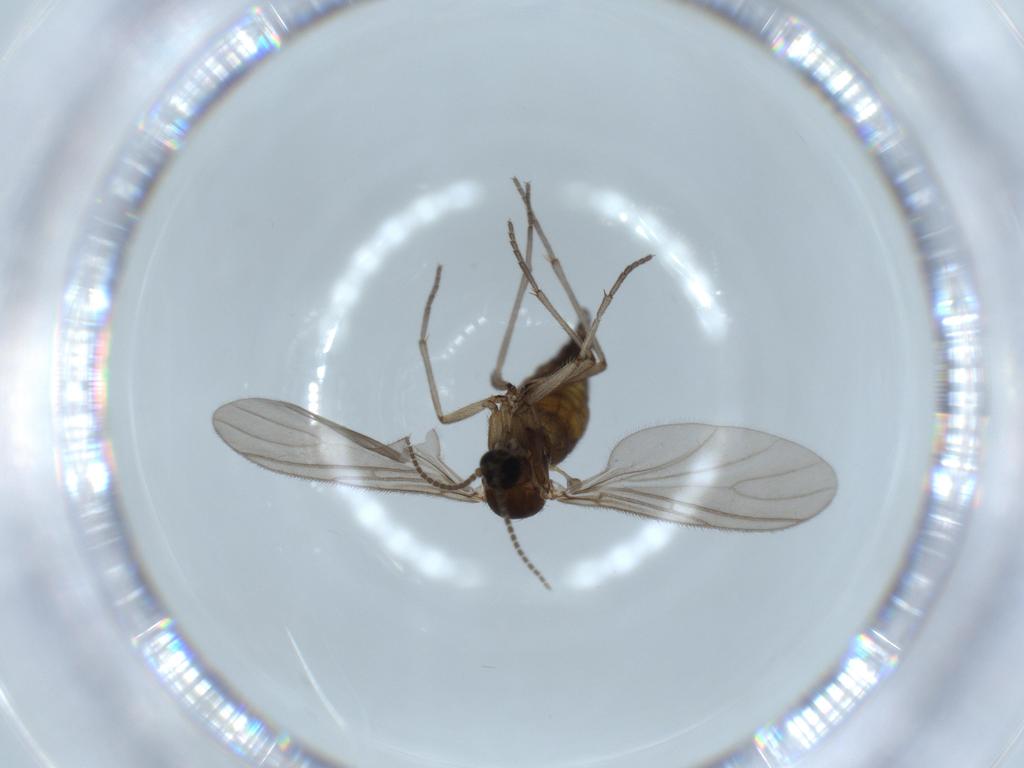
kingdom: Animalia
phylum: Arthropoda
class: Insecta
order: Diptera
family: Sciaridae
